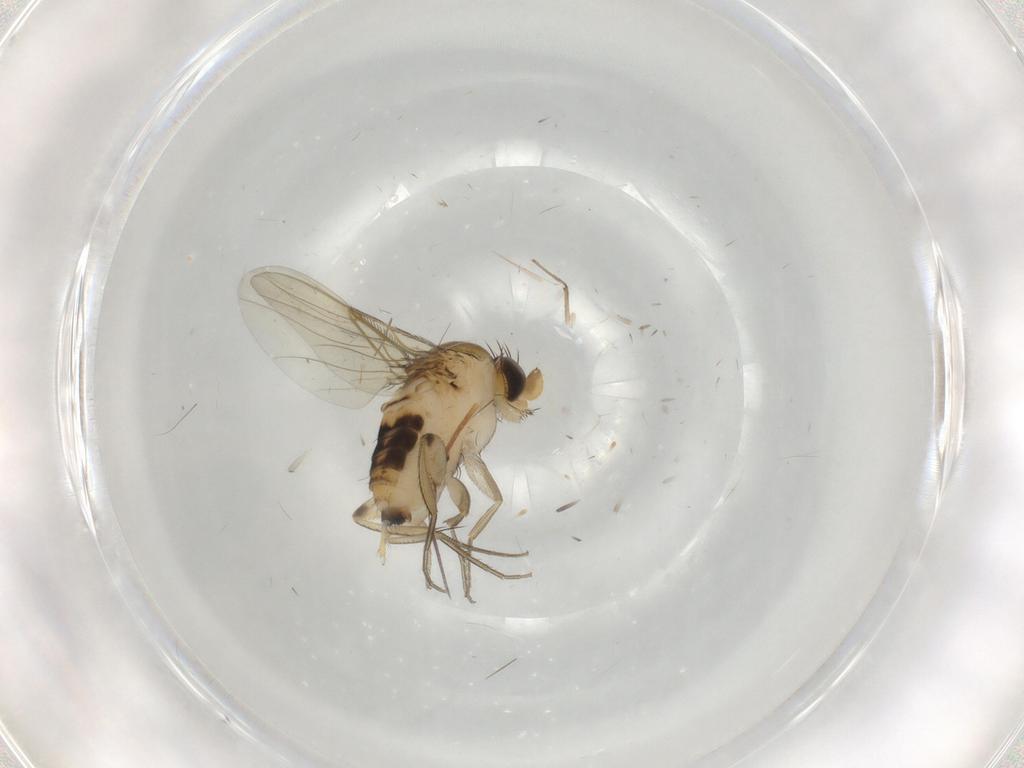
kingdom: Animalia
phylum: Arthropoda
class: Insecta
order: Diptera
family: Phoridae
